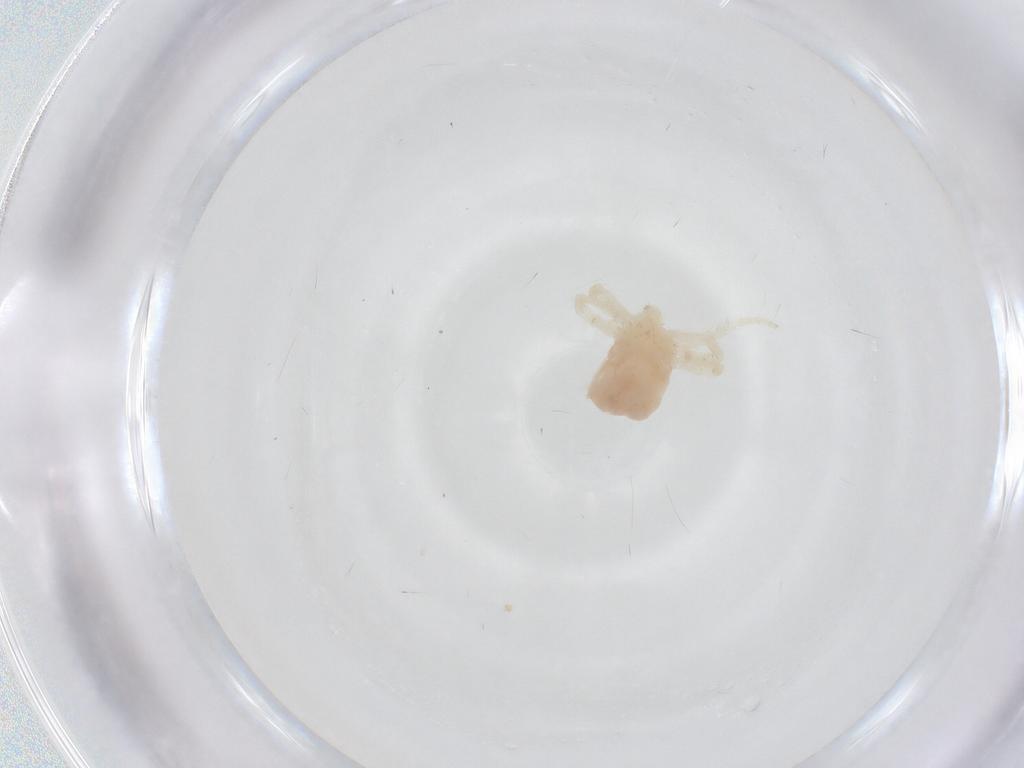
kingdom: Animalia
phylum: Arthropoda
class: Arachnida
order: Trombidiformes
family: Anystidae
